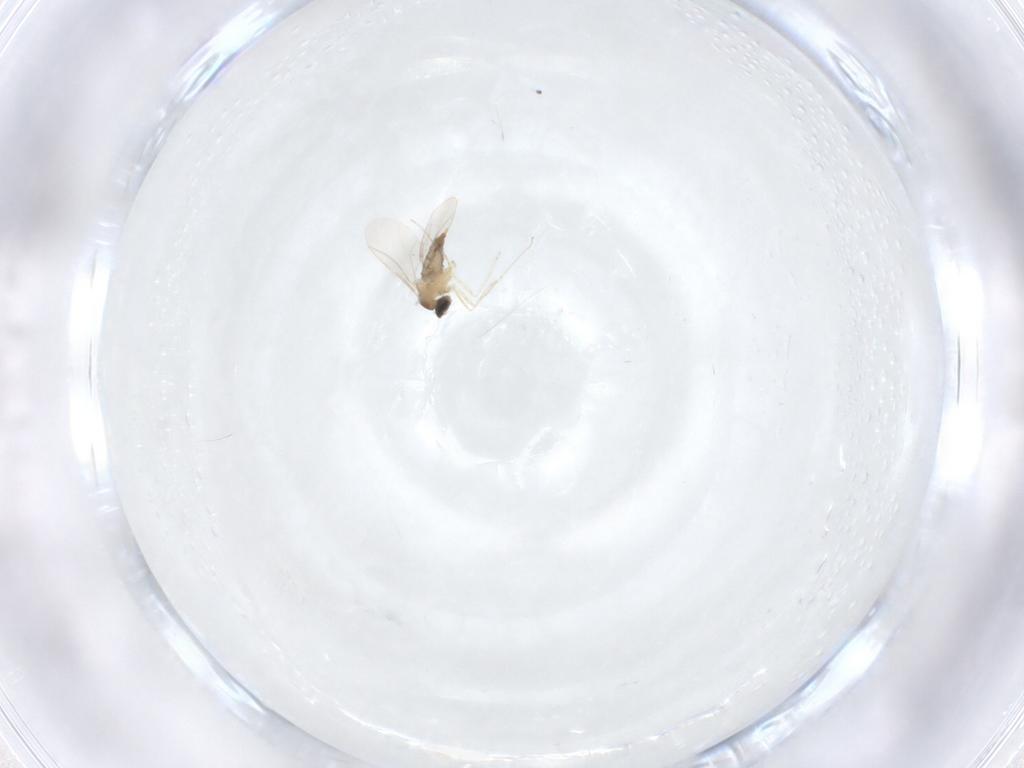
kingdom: Animalia
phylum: Arthropoda
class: Insecta
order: Diptera
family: Cecidomyiidae
